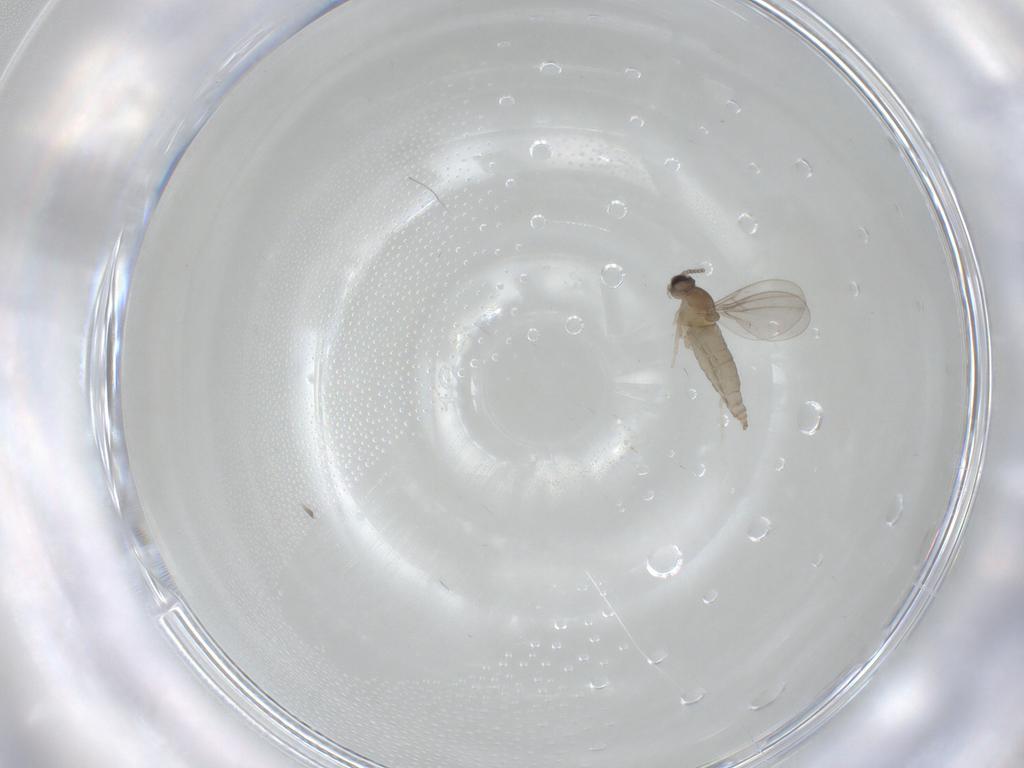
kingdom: Animalia
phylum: Arthropoda
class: Insecta
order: Diptera
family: Cecidomyiidae
